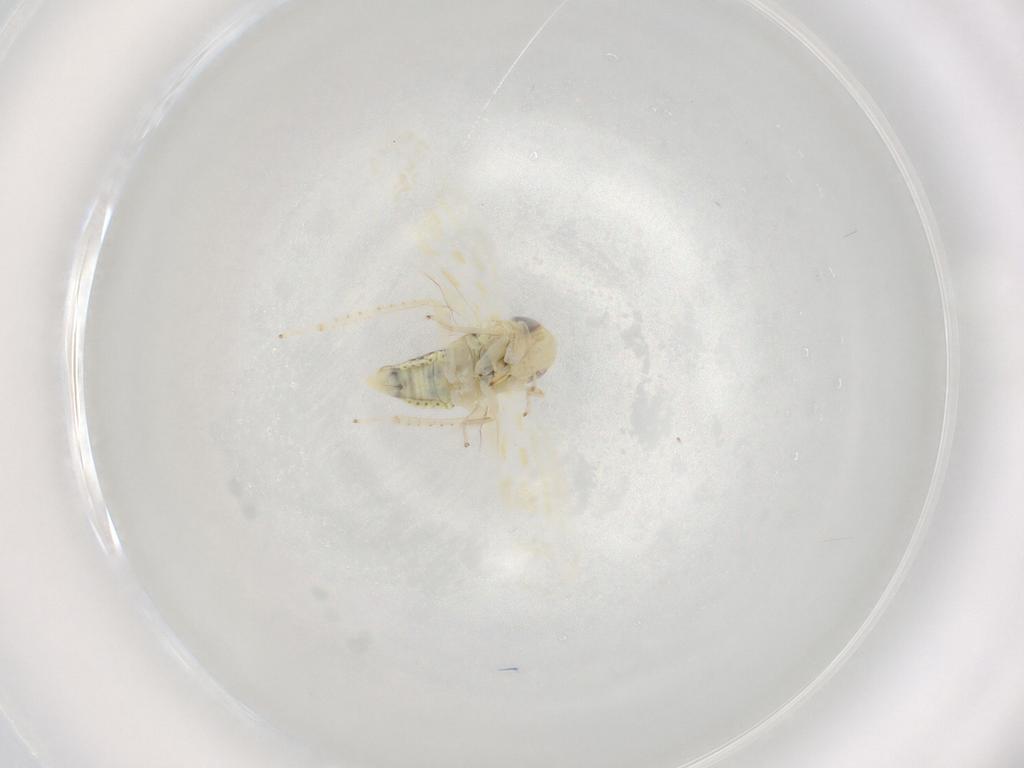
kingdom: Animalia
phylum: Arthropoda
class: Insecta
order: Hemiptera
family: Cicadellidae
